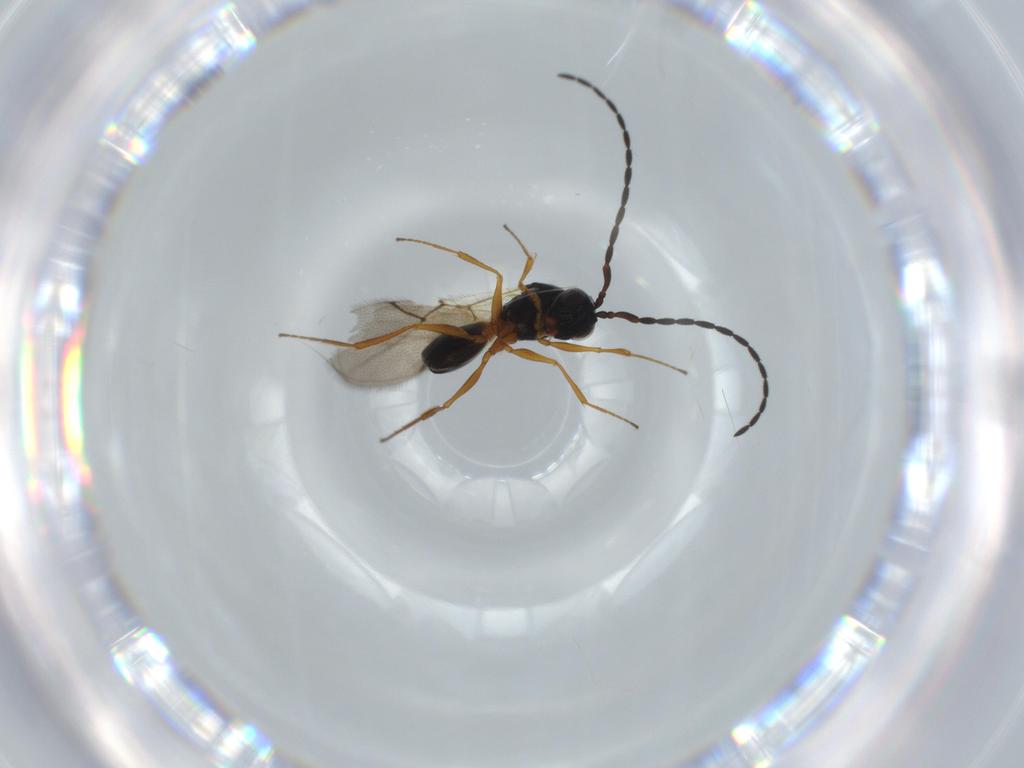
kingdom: Animalia
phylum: Arthropoda
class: Insecta
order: Hymenoptera
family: Figitidae
